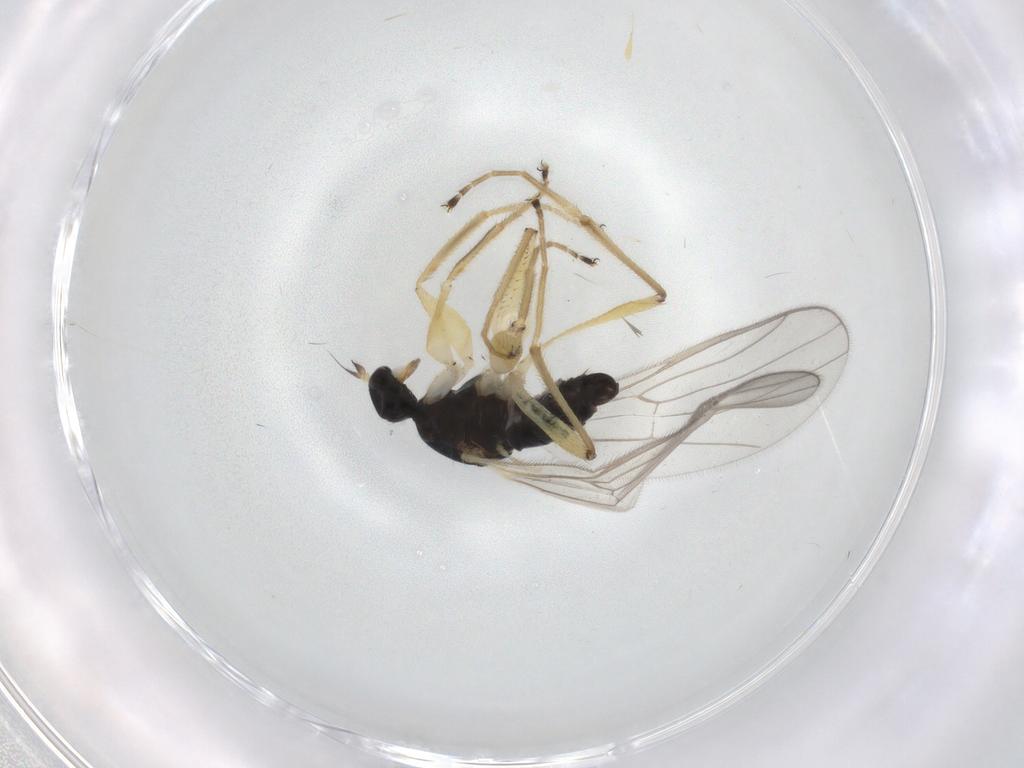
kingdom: Animalia
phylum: Arthropoda
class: Insecta
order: Diptera
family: Hybotidae
